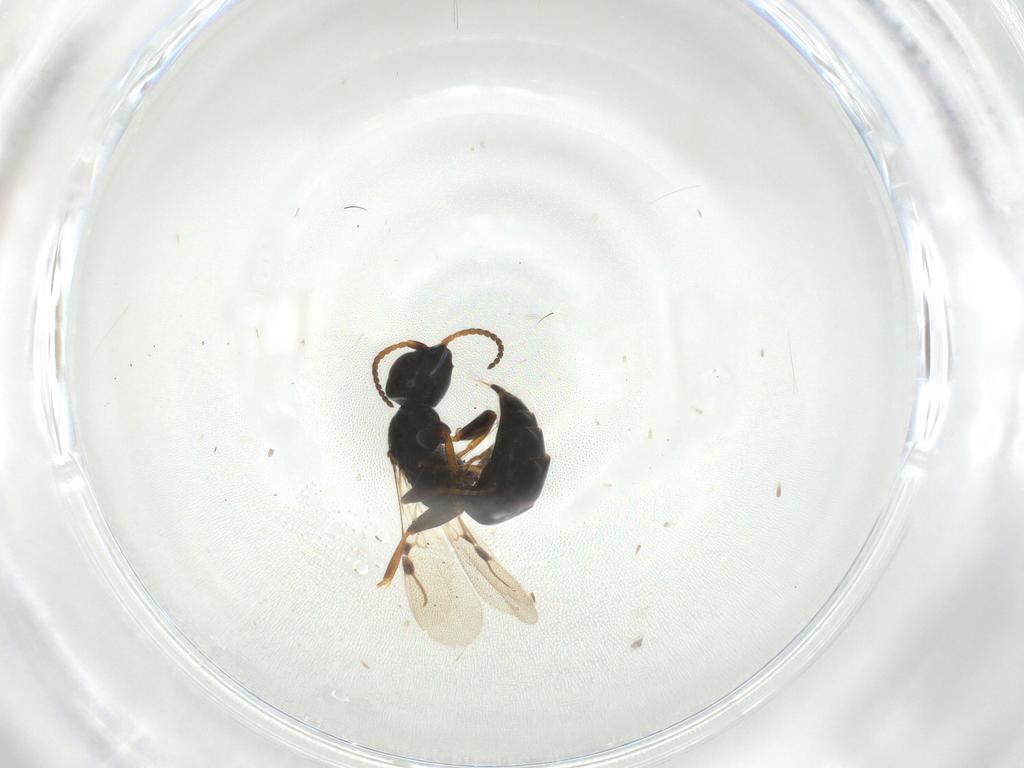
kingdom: Animalia
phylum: Arthropoda
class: Insecta
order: Hymenoptera
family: Bethylidae
